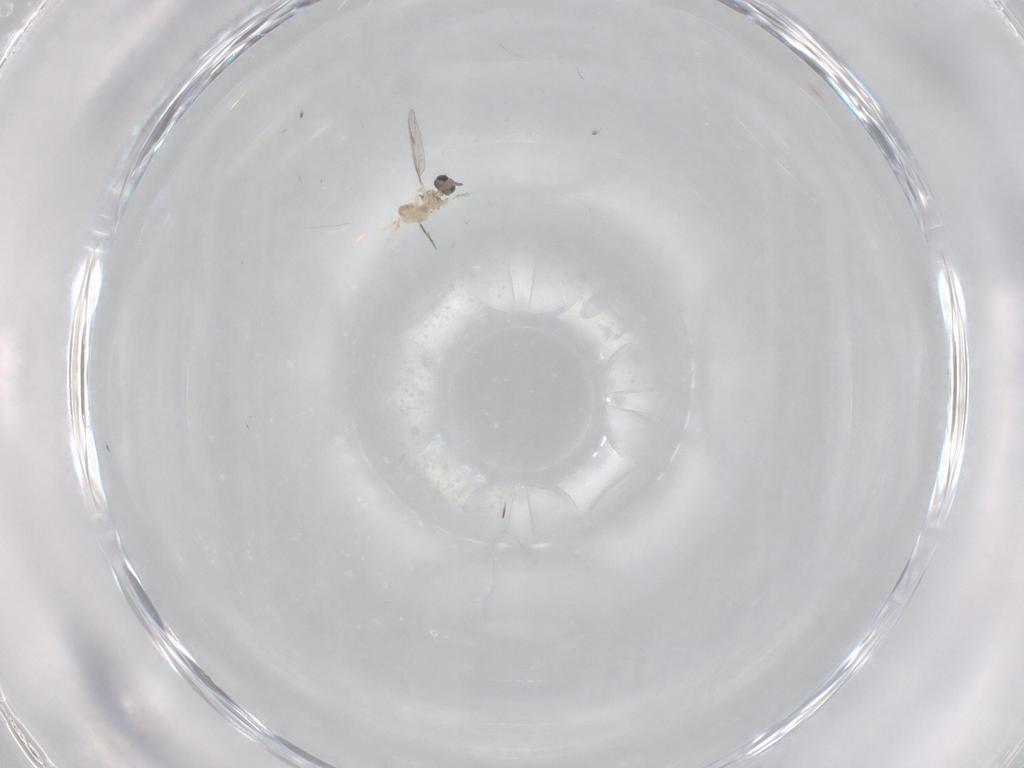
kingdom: Animalia
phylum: Arthropoda
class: Insecta
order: Diptera
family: Cecidomyiidae
